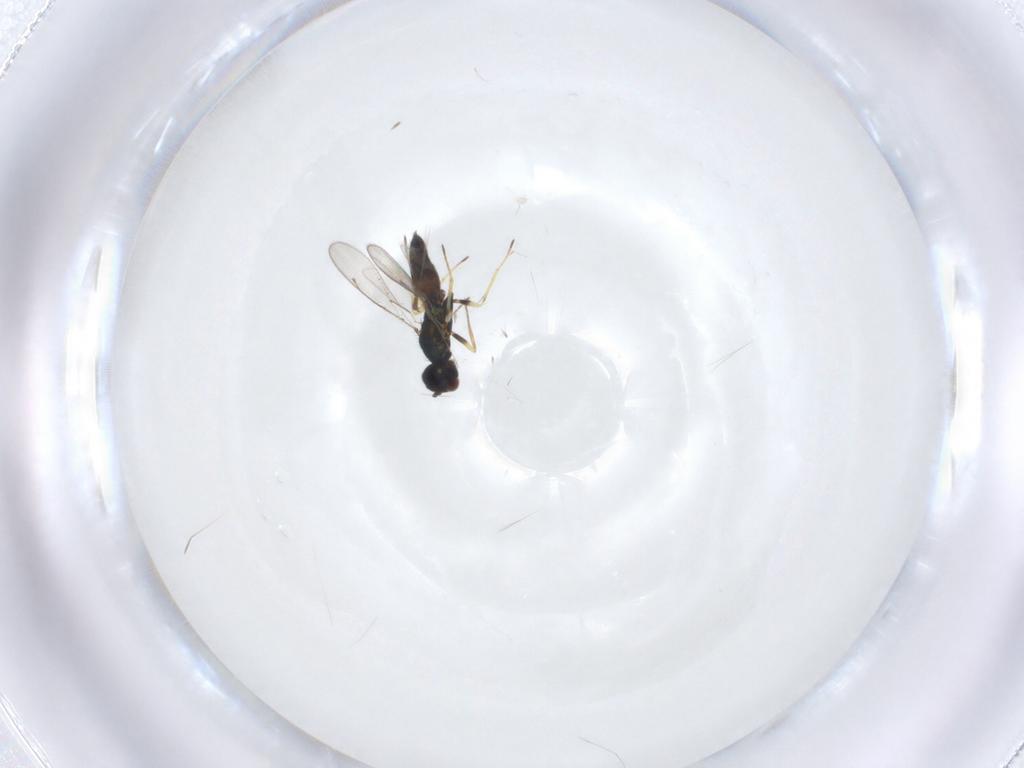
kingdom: Animalia
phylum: Arthropoda
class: Insecta
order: Hymenoptera
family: Eulophidae
